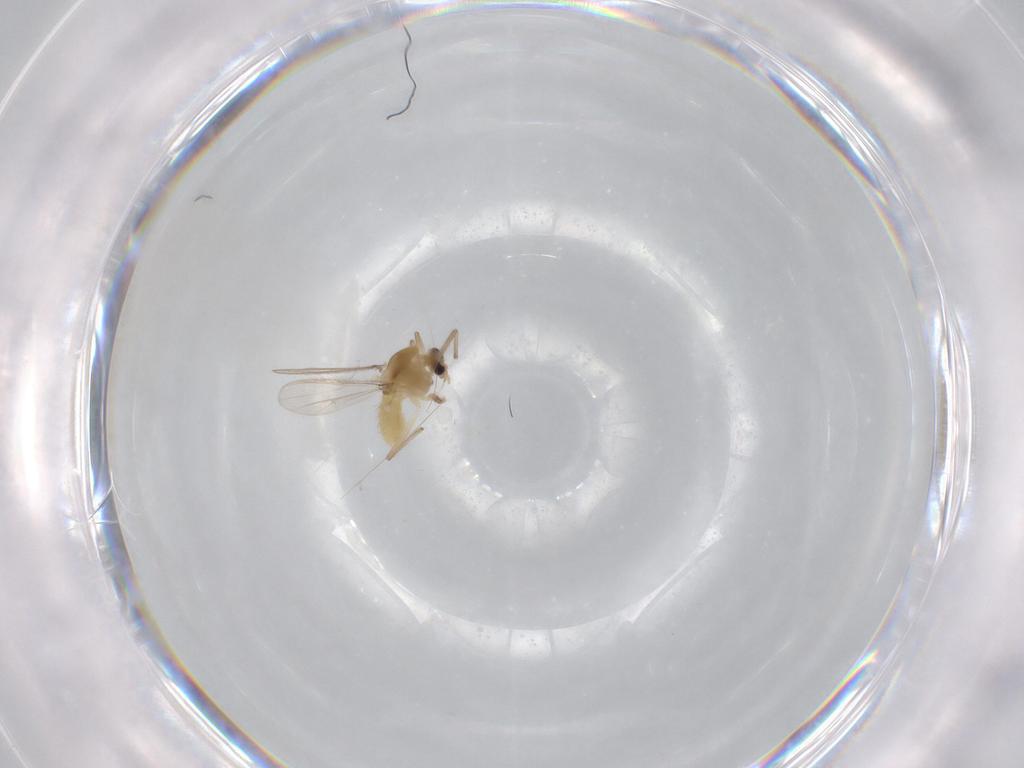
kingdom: Animalia
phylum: Arthropoda
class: Insecta
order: Diptera
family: Chironomidae
